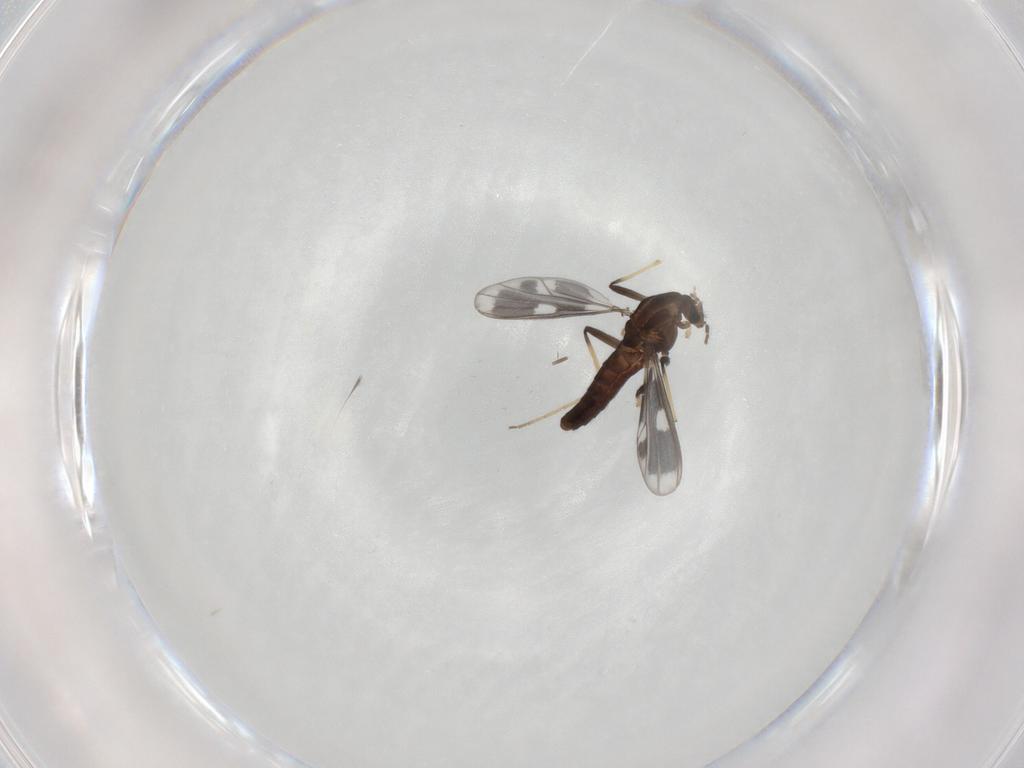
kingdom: Animalia
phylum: Arthropoda
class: Insecta
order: Diptera
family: Chironomidae
